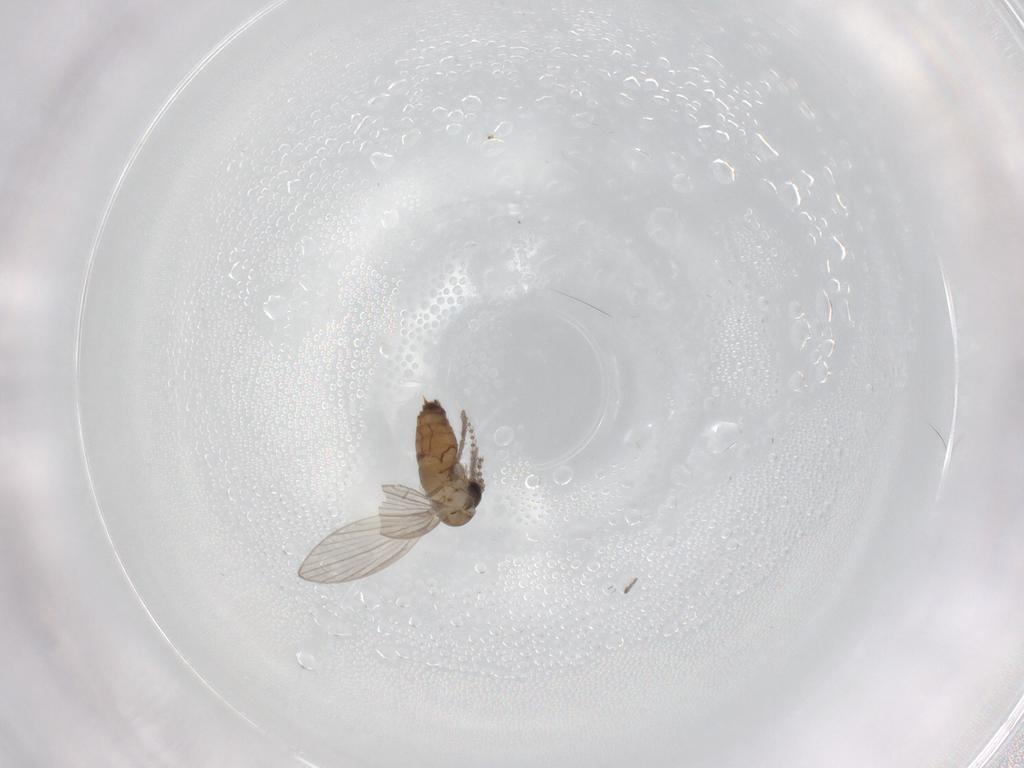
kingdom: Animalia
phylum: Arthropoda
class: Insecta
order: Diptera
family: Psychodidae
